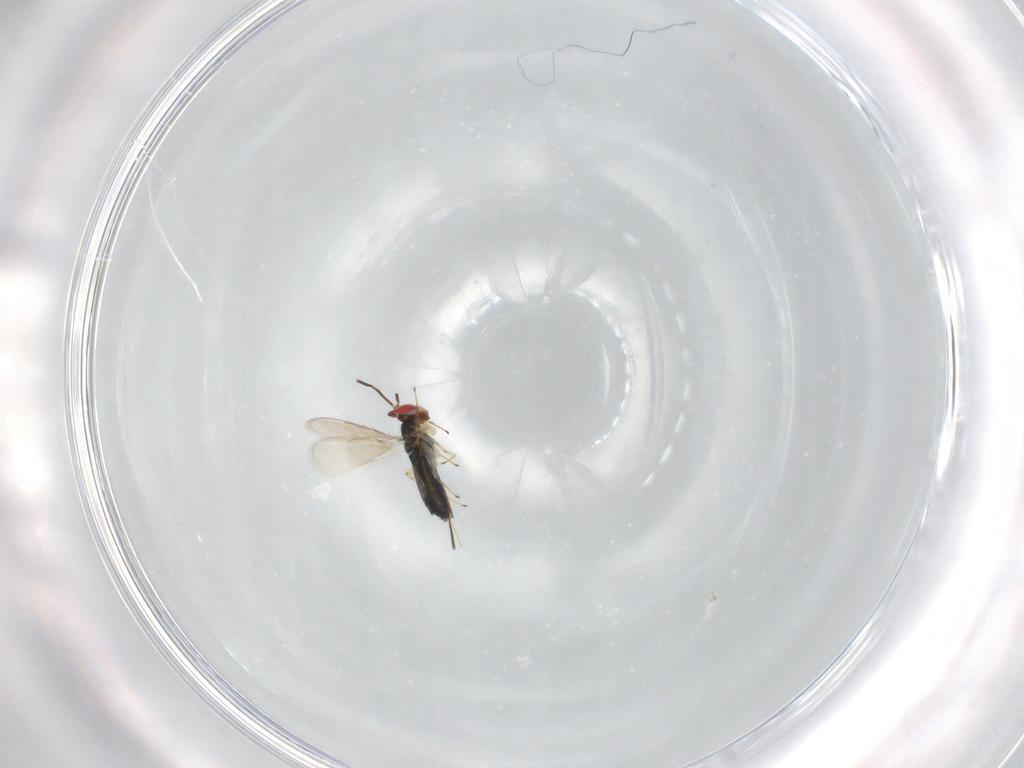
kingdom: Animalia
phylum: Arthropoda
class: Insecta
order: Hymenoptera
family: Azotidae
